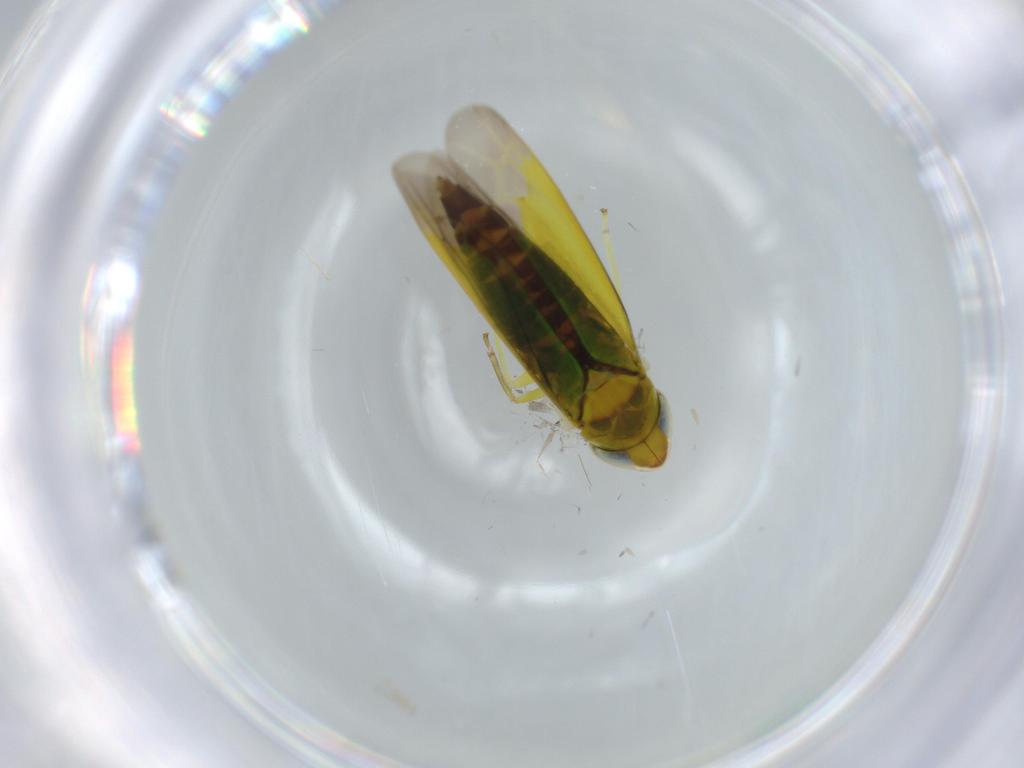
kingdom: Animalia
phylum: Arthropoda
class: Insecta
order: Hemiptera
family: Cicadellidae
